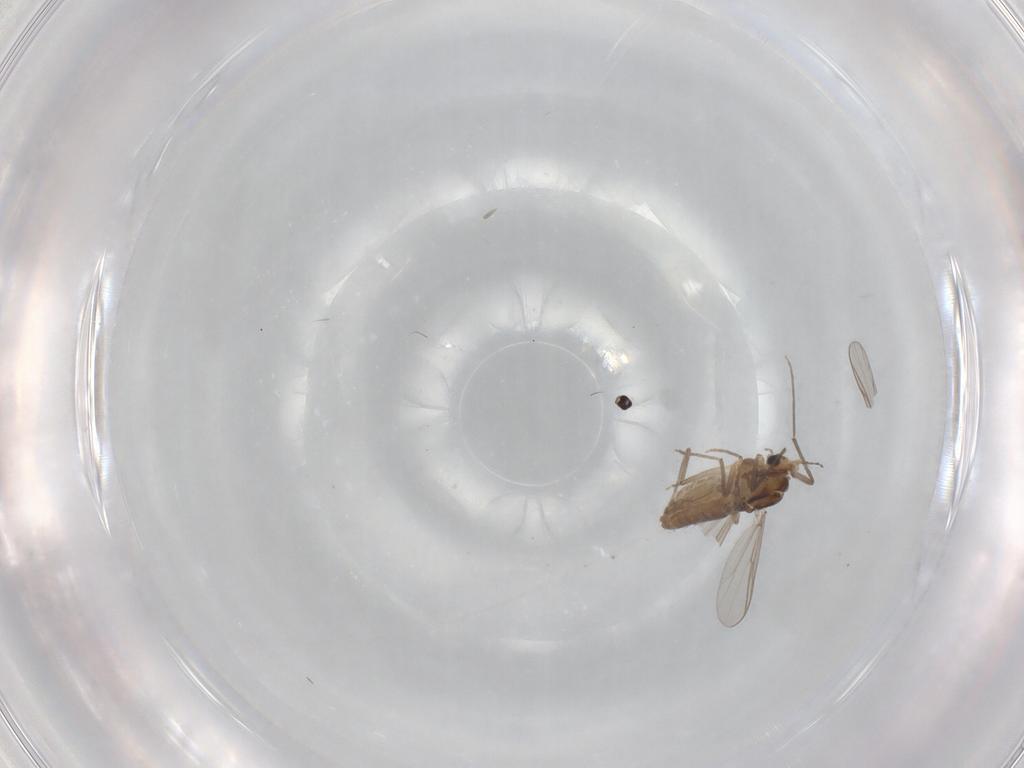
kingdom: Animalia
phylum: Arthropoda
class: Insecta
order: Diptera
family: Chironomidae
